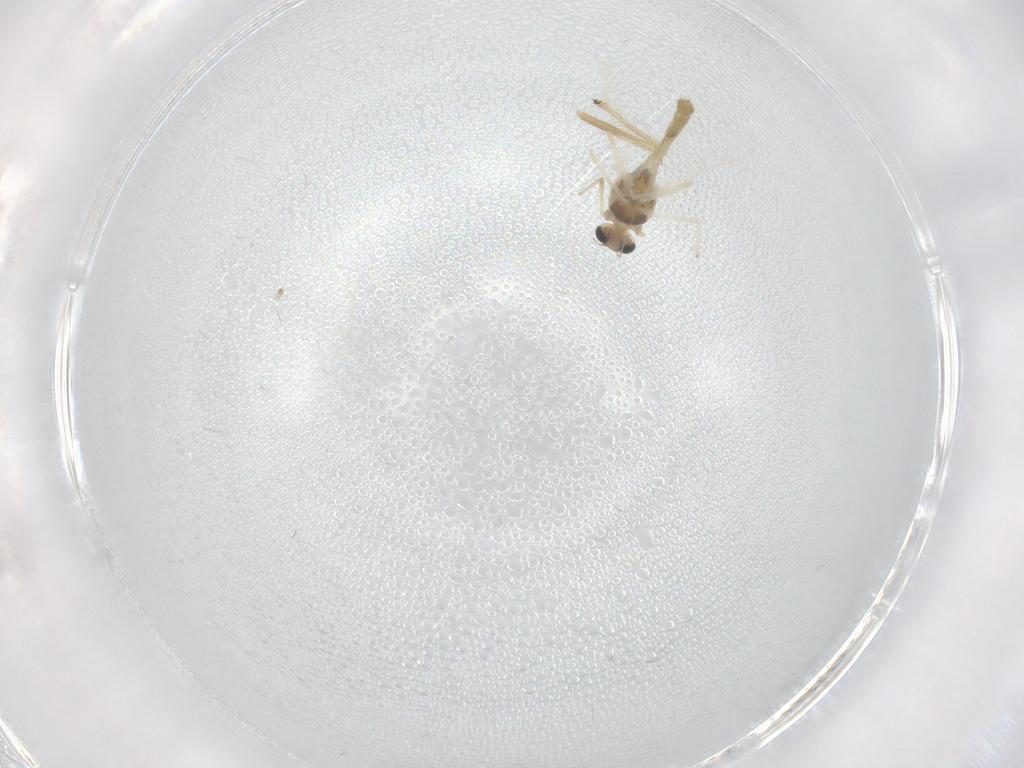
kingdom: Animalia
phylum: Arthropoda
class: Insecta
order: Diptera
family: Chironomidae
